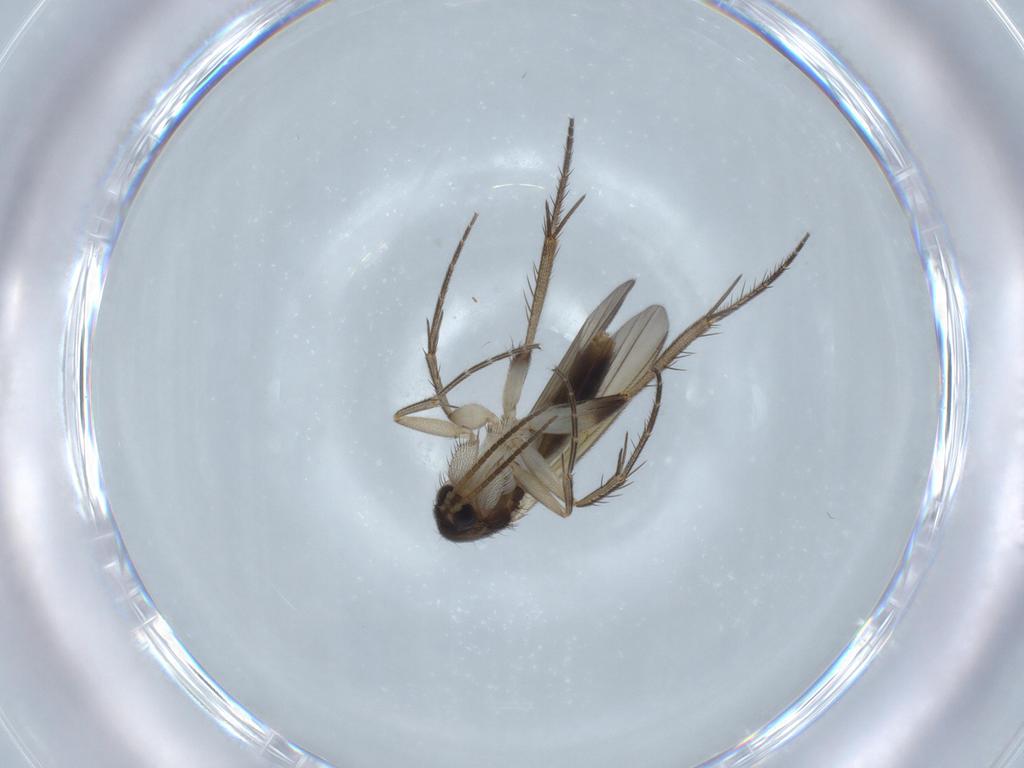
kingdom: Animalia
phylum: Arthropoda
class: Insecta
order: Diptera
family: Mycetophilidae
